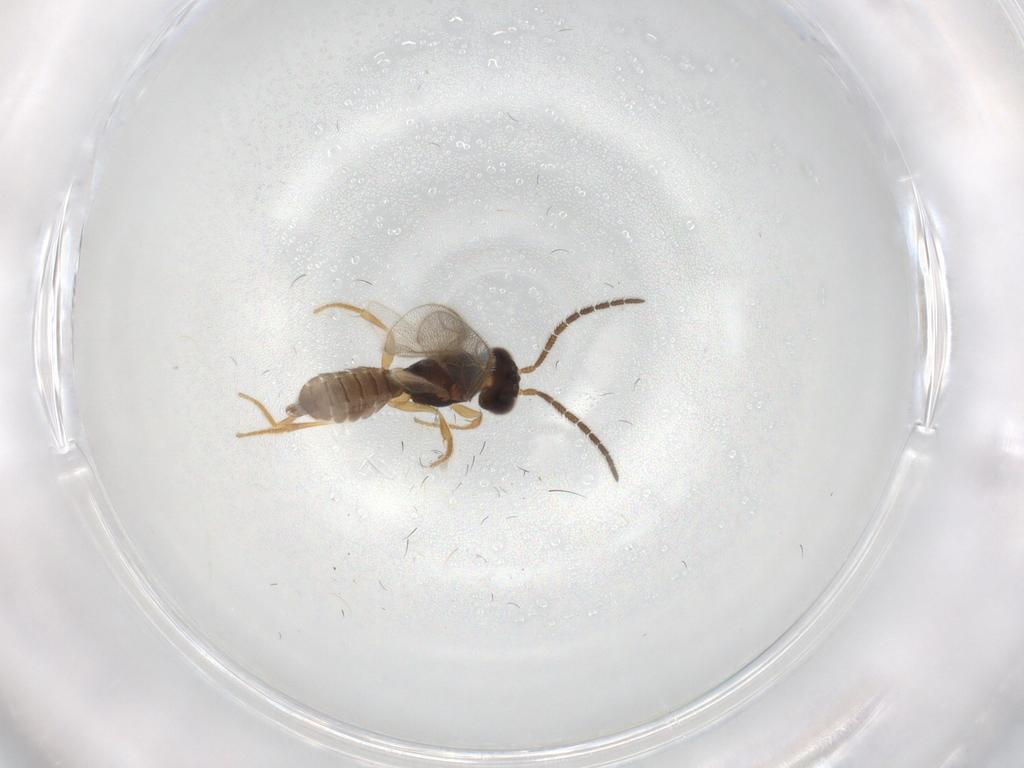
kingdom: Animalia
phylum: Arthropoda
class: Insecta
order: Hymenoptera
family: Dryinidae
